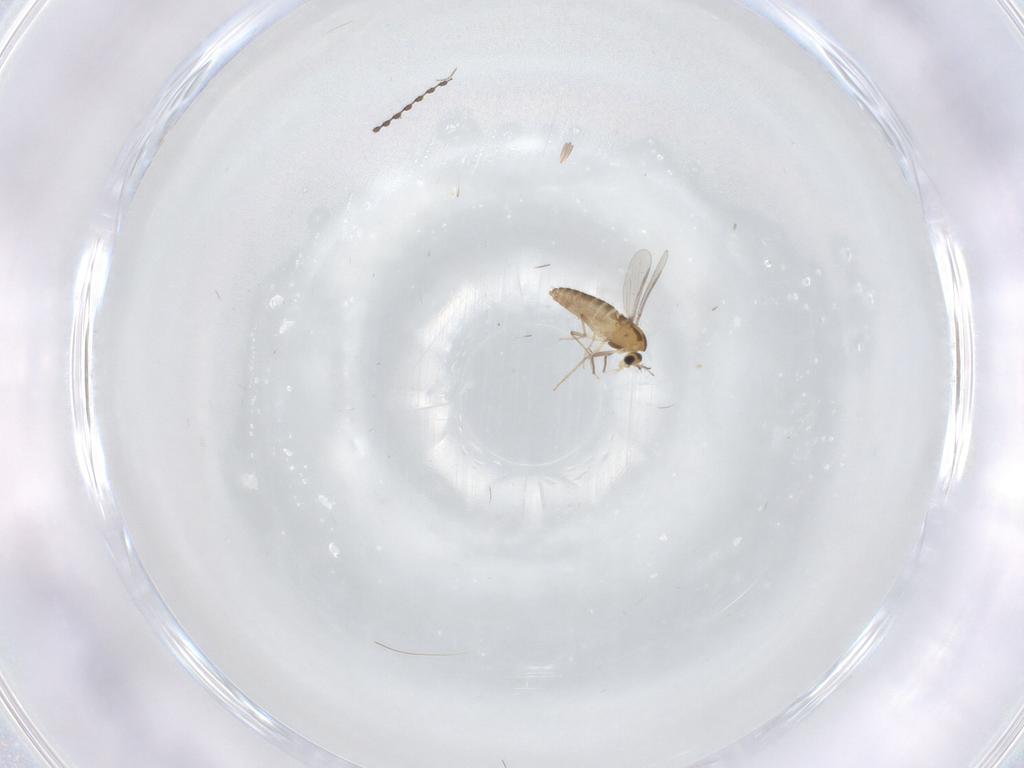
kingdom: Animalia
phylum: Arthropoda
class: Insecta
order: Diptera
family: Chironomidae
